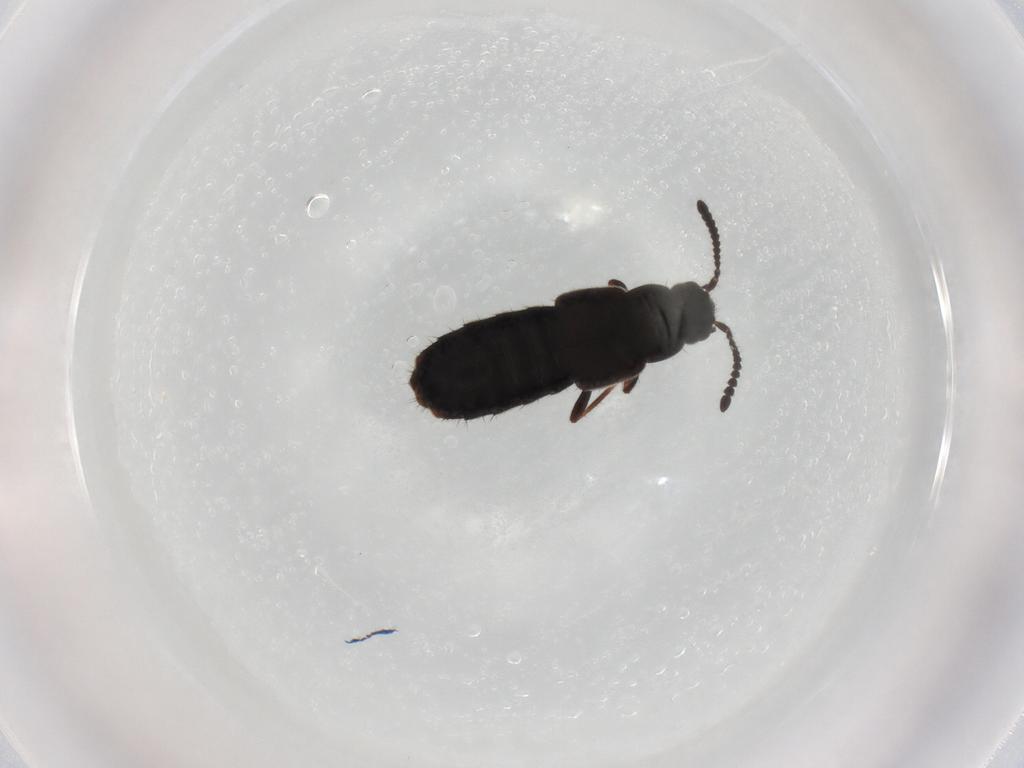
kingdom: Animalia
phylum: Arthropoda
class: Insecta
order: Coleoptera
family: Staphylinidae
